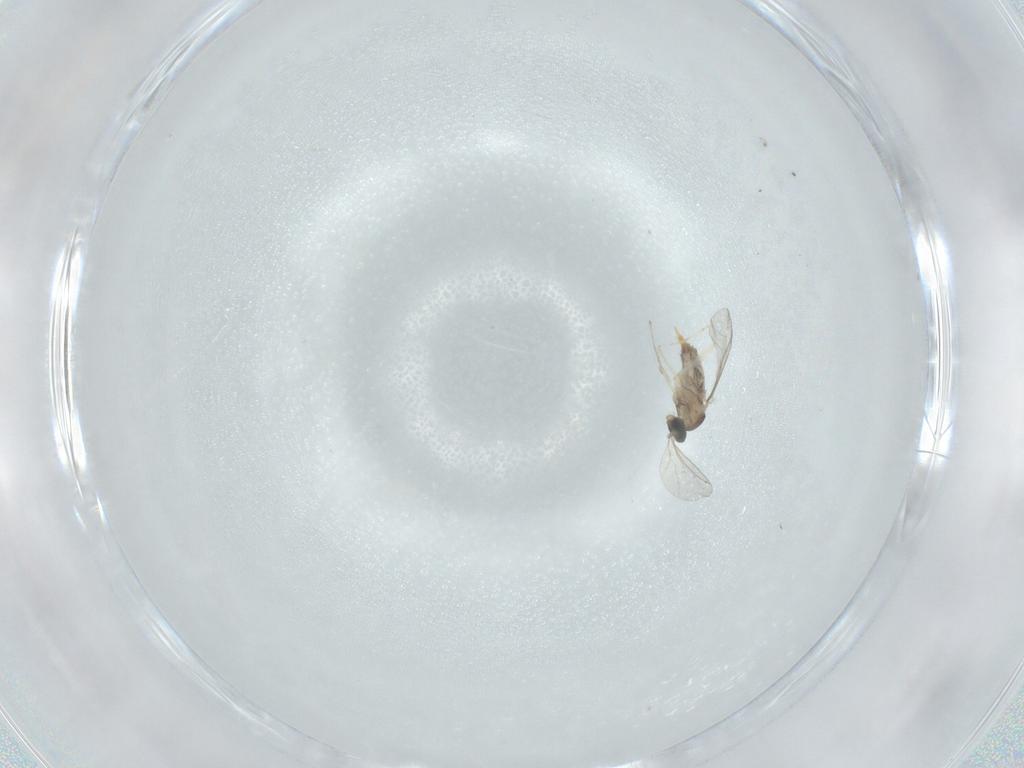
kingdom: Animalia
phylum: Arthropoda
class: Insecta
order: Diptera
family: Cecidomyiidae
